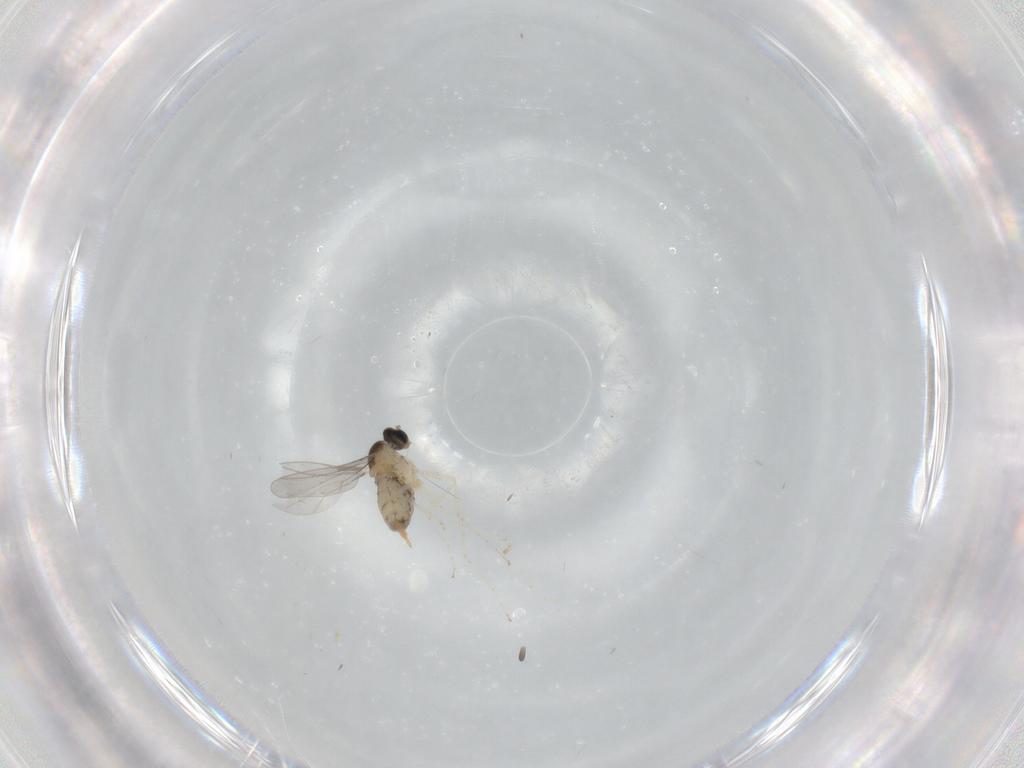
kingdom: Animalia
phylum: Arthropoda
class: Insecta
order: Diptera
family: Cecidomyiidae
